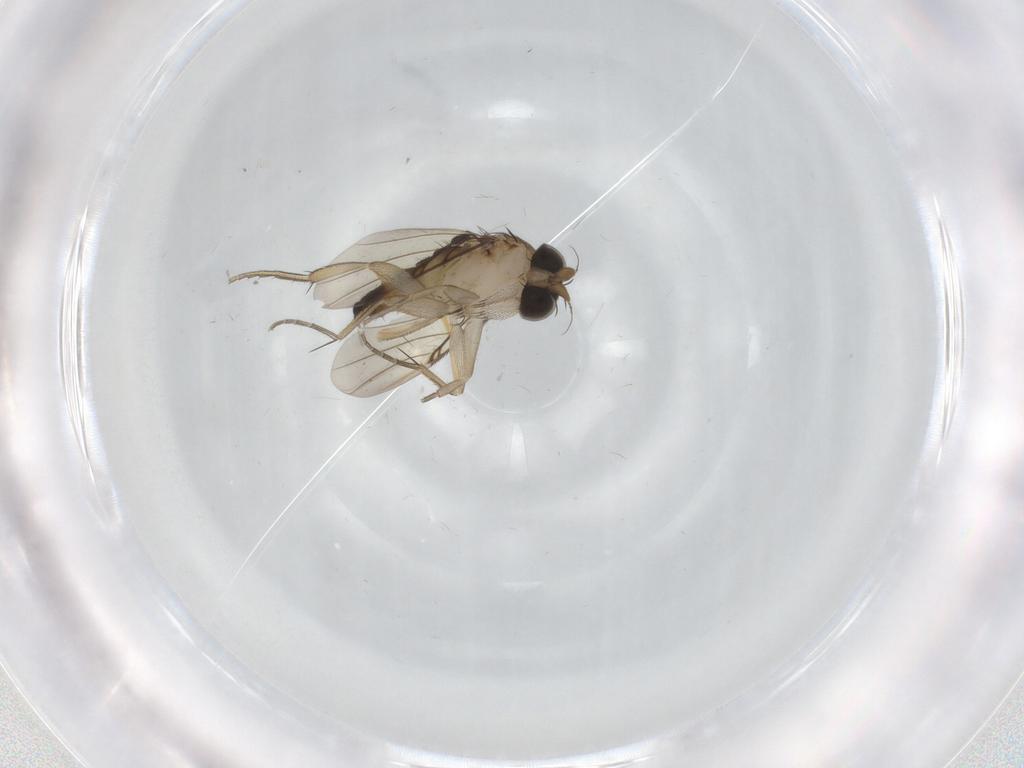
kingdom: Animalia
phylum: Arthropoda
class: Insecta
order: Diptera
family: Phoridae
